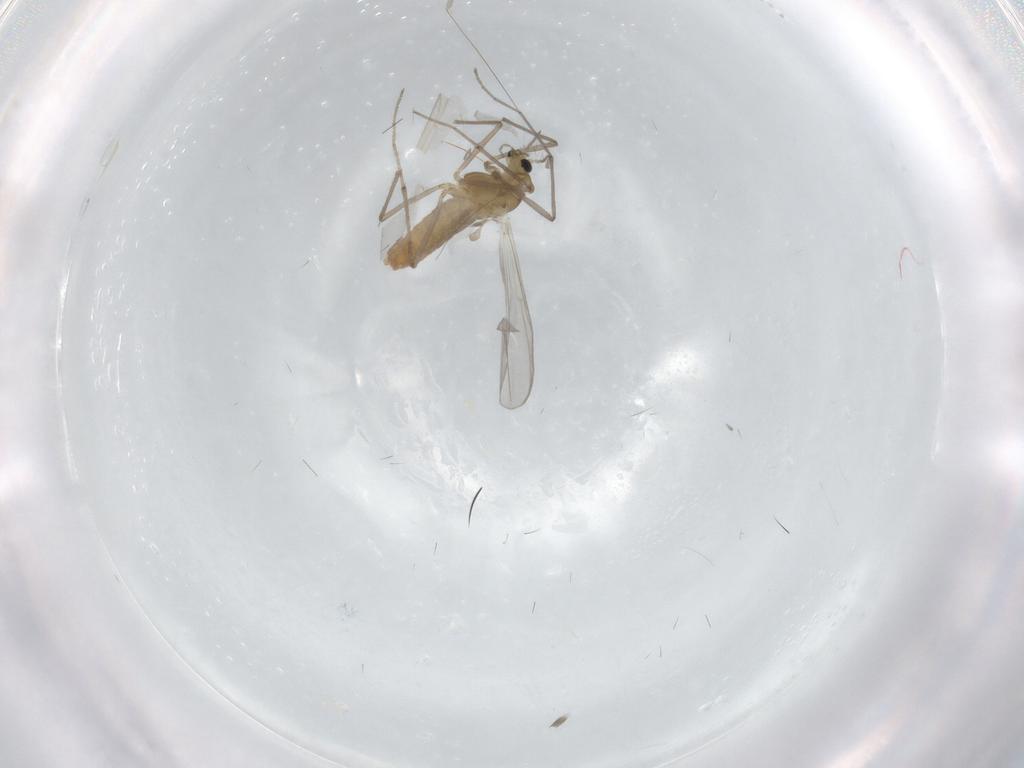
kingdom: Animalia
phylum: Arthropoda
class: Insecta
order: Diptera
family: Chironomidae
